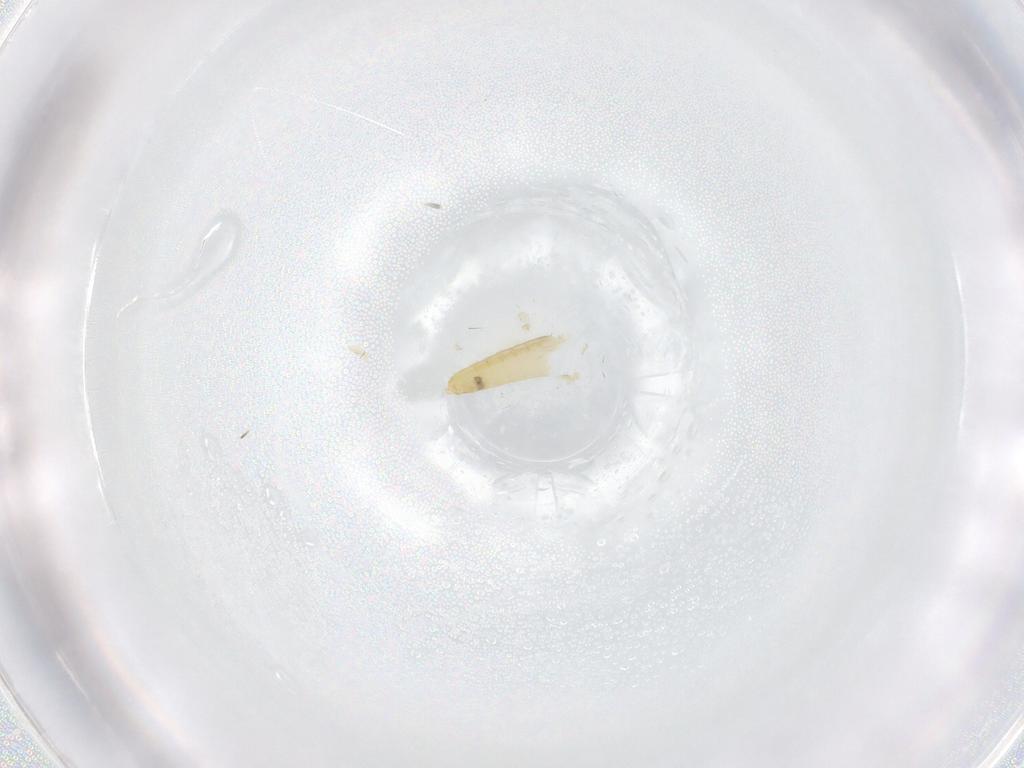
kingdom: Animalia
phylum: Arthropoda
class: Insecta
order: Diptera
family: Chironomidae
